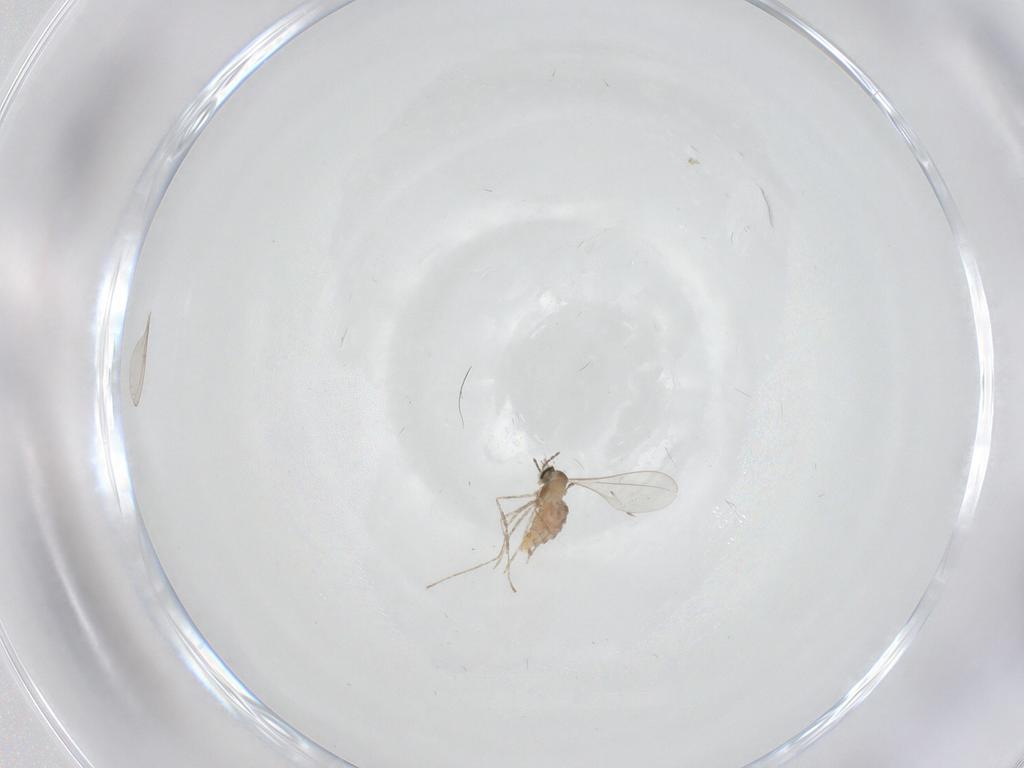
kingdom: Animalia
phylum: Arthropoda
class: Insecta
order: Diptera
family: Cecidomyiidae
